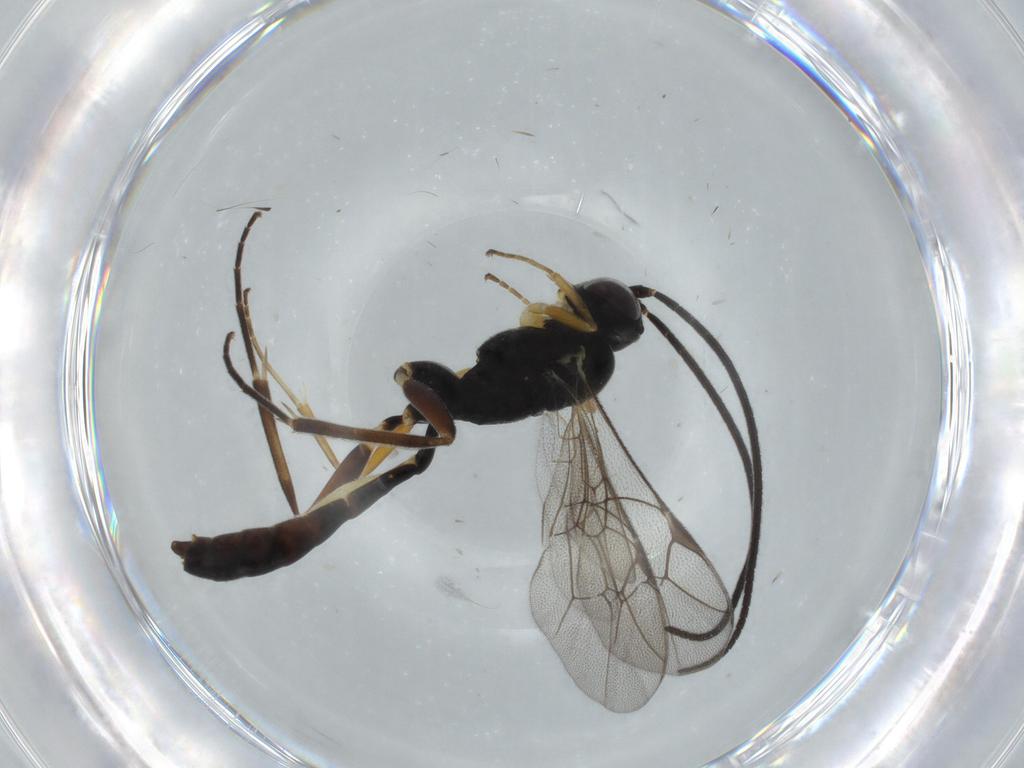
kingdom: Animalia
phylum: Arthropoda
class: Insecta
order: Hymenoptera
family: Ichneumonidae
